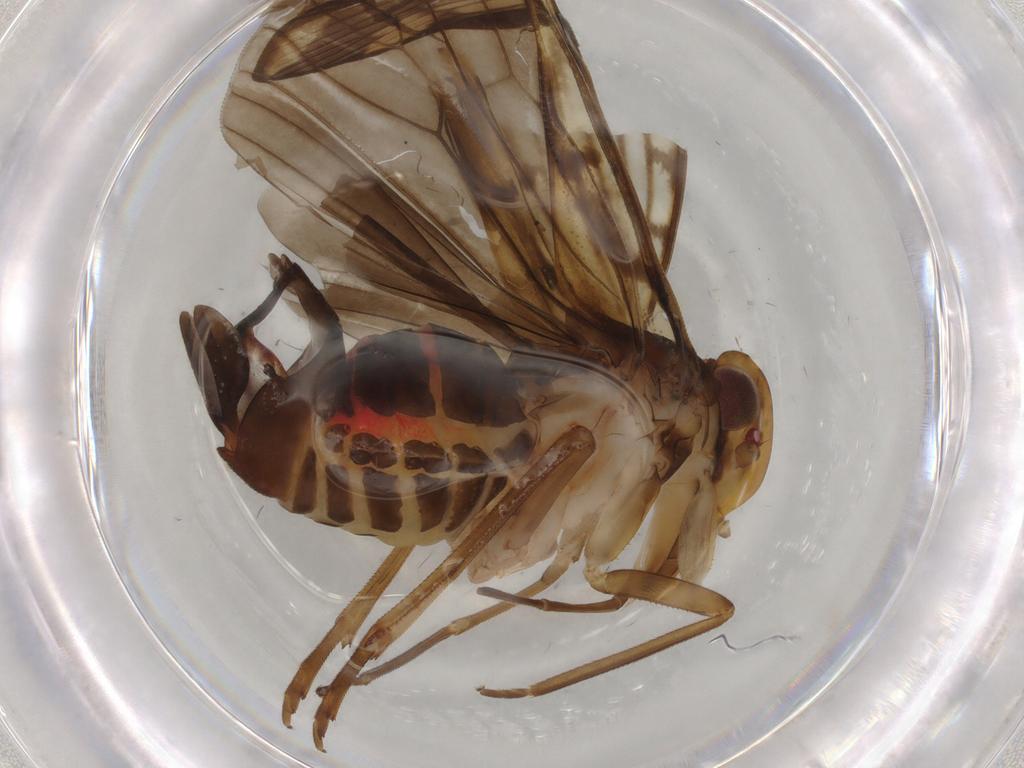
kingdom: Animalia
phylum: Arthropoda
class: Insecta
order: Hemiptera
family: Cixiidae
